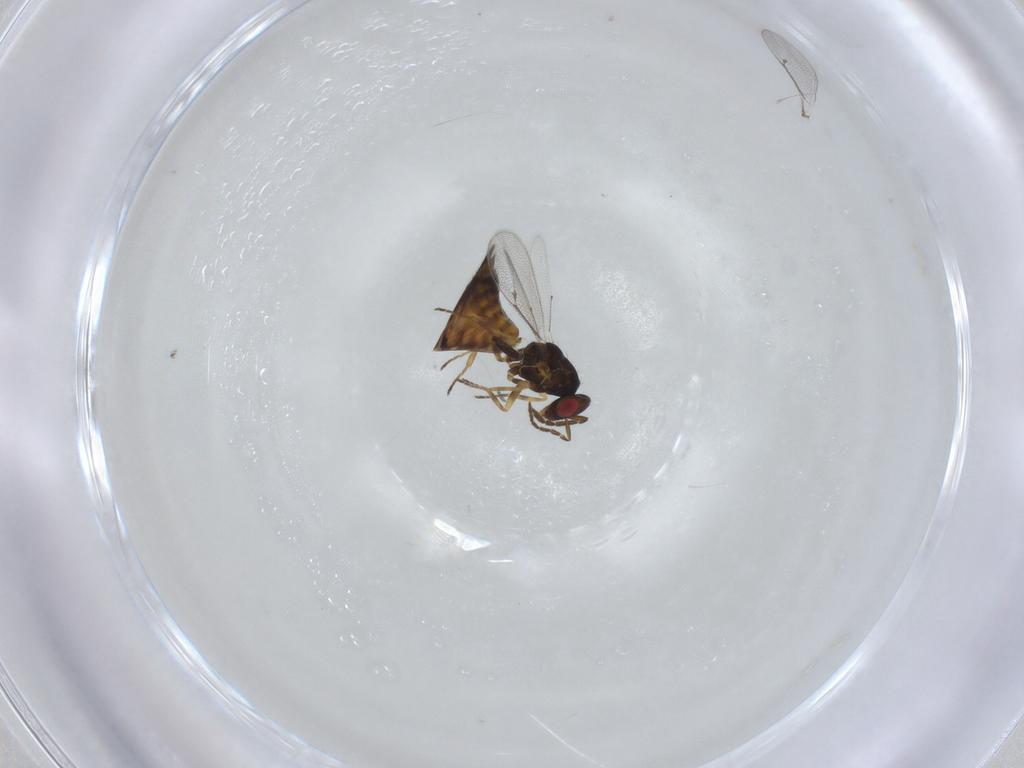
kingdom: Animalia
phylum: Arthropoda
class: Insecta
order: Hymenoptera
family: Eulophidae
